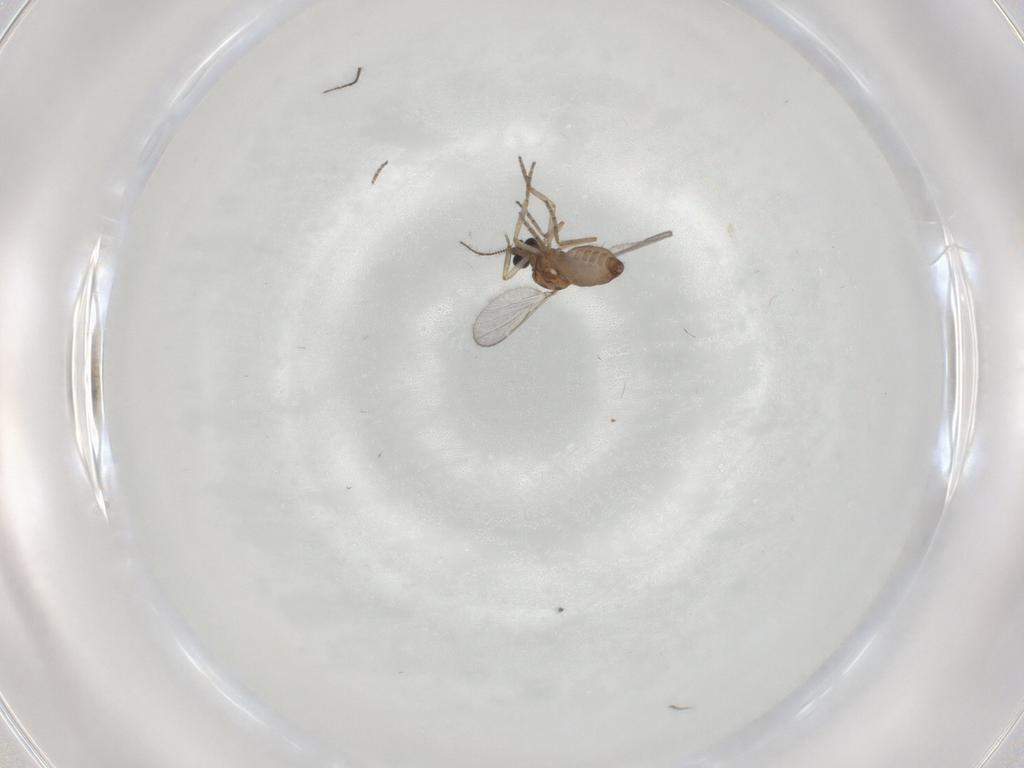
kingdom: Animalia
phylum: Arthropoda
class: Insecta
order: Diptera
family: Ceratopogonidae
